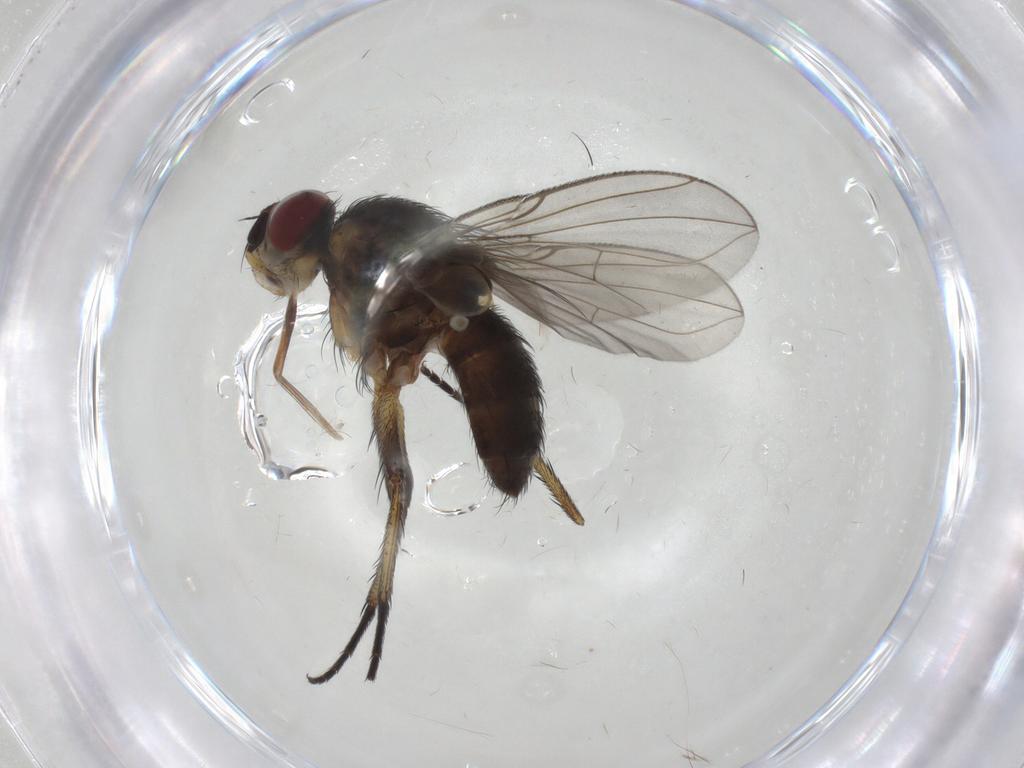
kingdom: Animalia
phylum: Arthropoda
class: Insecta
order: Diptera
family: Tachinidae
